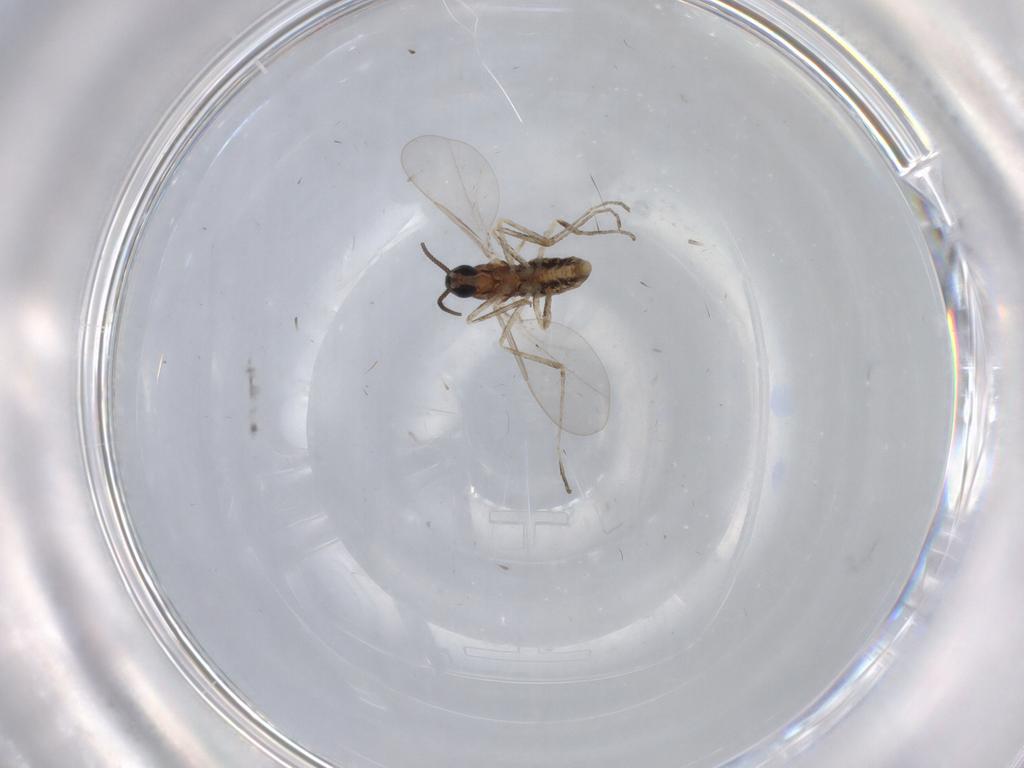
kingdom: Animalia
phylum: Arthropoda
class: Insecta
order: Diptera
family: Cecidomyiidae
